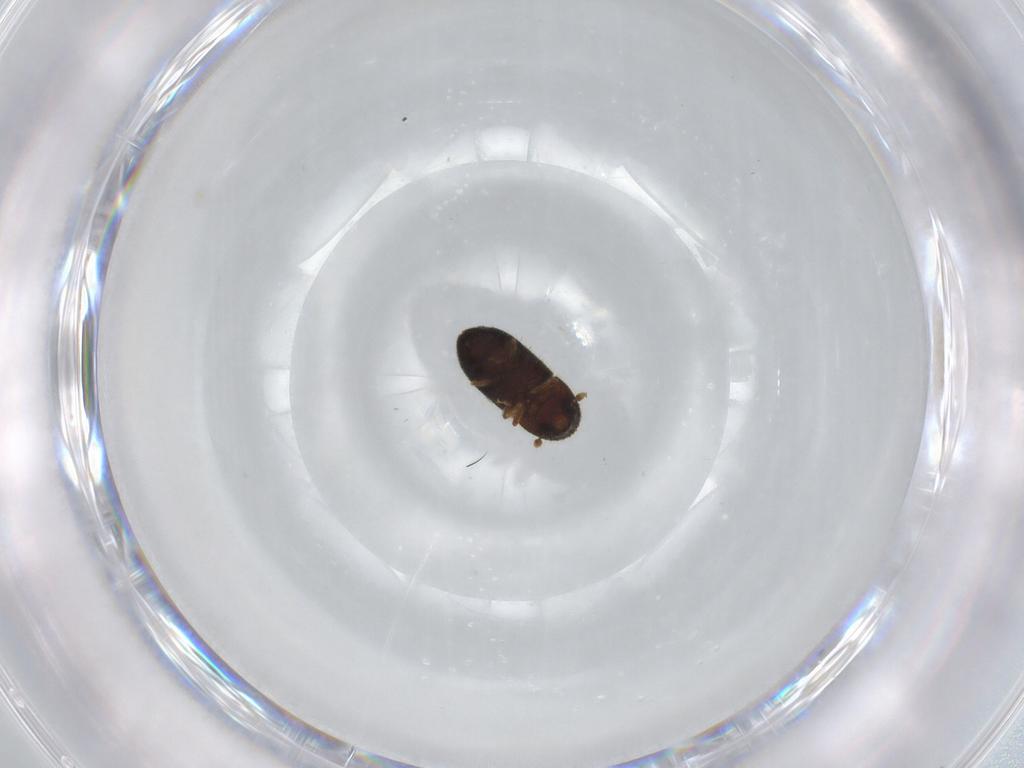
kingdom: Animalia
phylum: Arthropoda
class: Insecta
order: Coleoptera
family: Curculionidae
